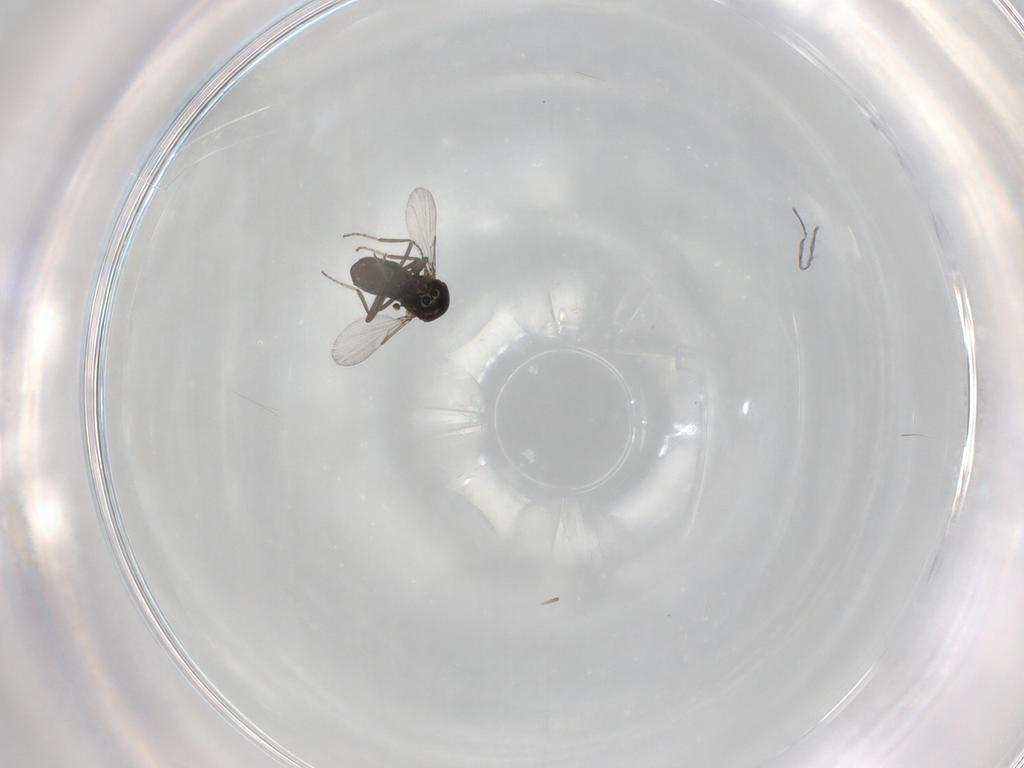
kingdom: Animalia
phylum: Arthropoda
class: Insecta
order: Diptera
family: Ceratopogonidae
